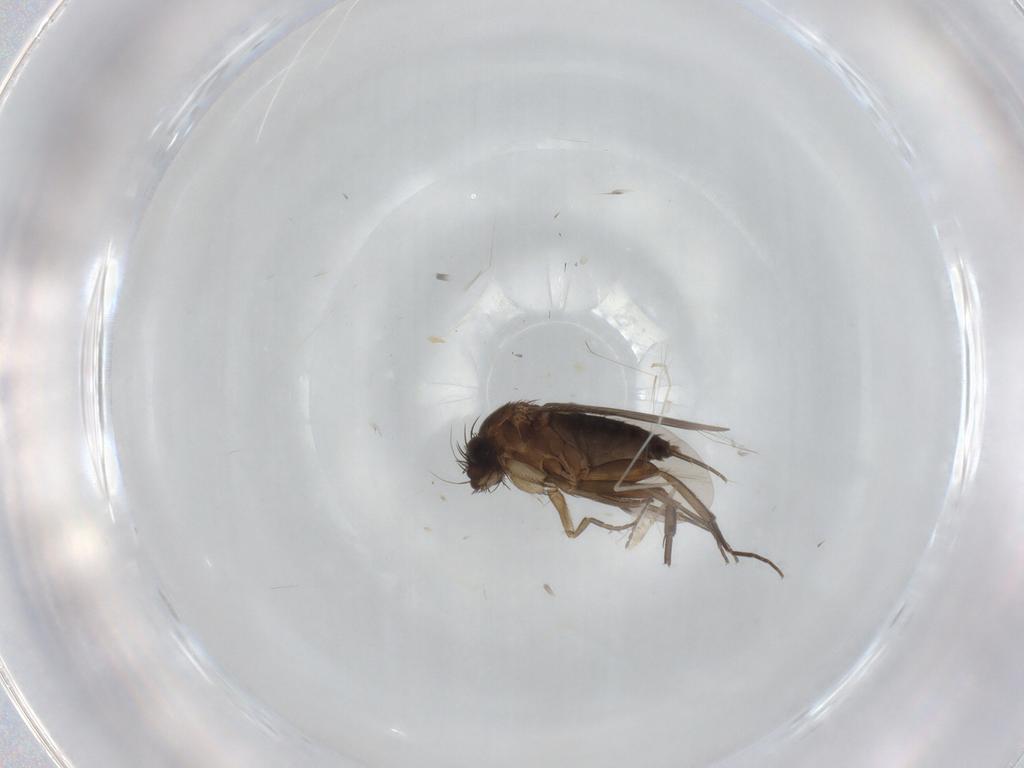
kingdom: Animalia
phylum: Arthropoda
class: Insecta
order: Diptera
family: Phoridae
